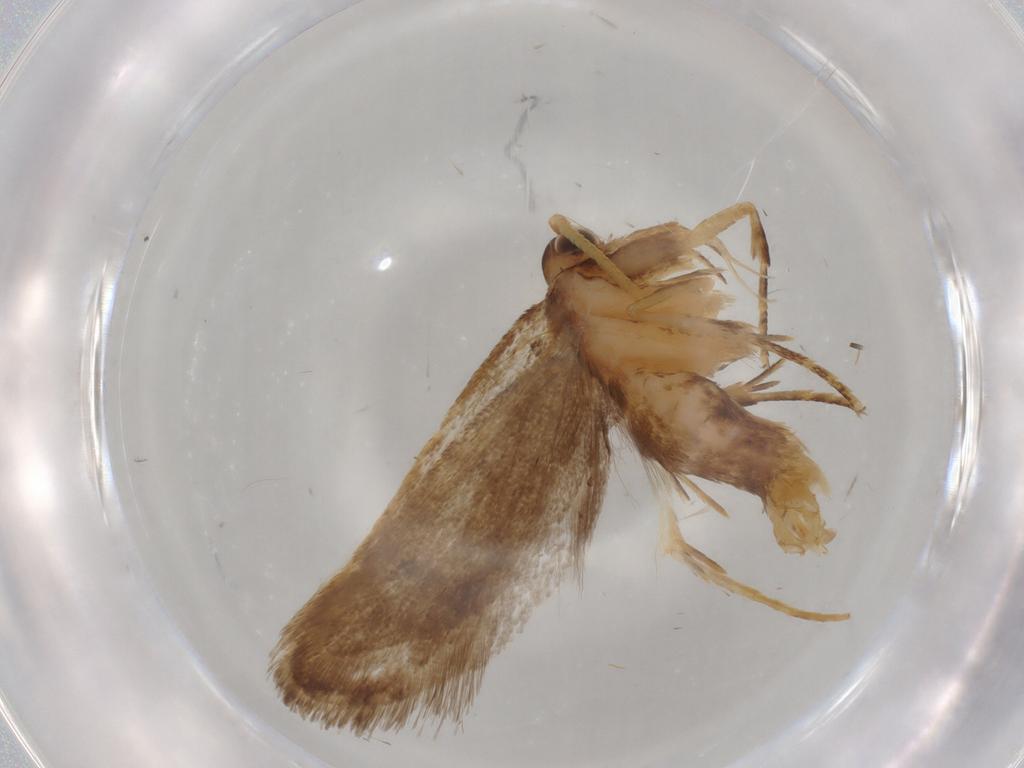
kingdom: Animalia
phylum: Arthropoda
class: Insecta
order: Lepidoptera
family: Lecithoceridae
